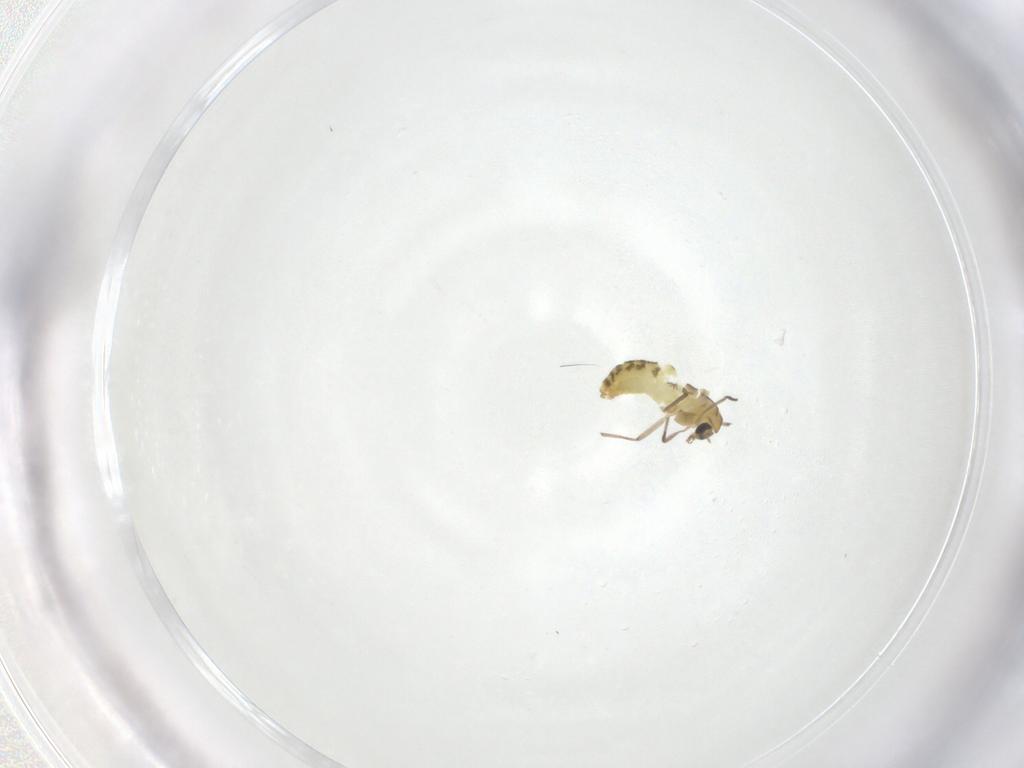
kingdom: Animalia
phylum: Arthropoda
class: Insecta
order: Diptera
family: Chironomidae
